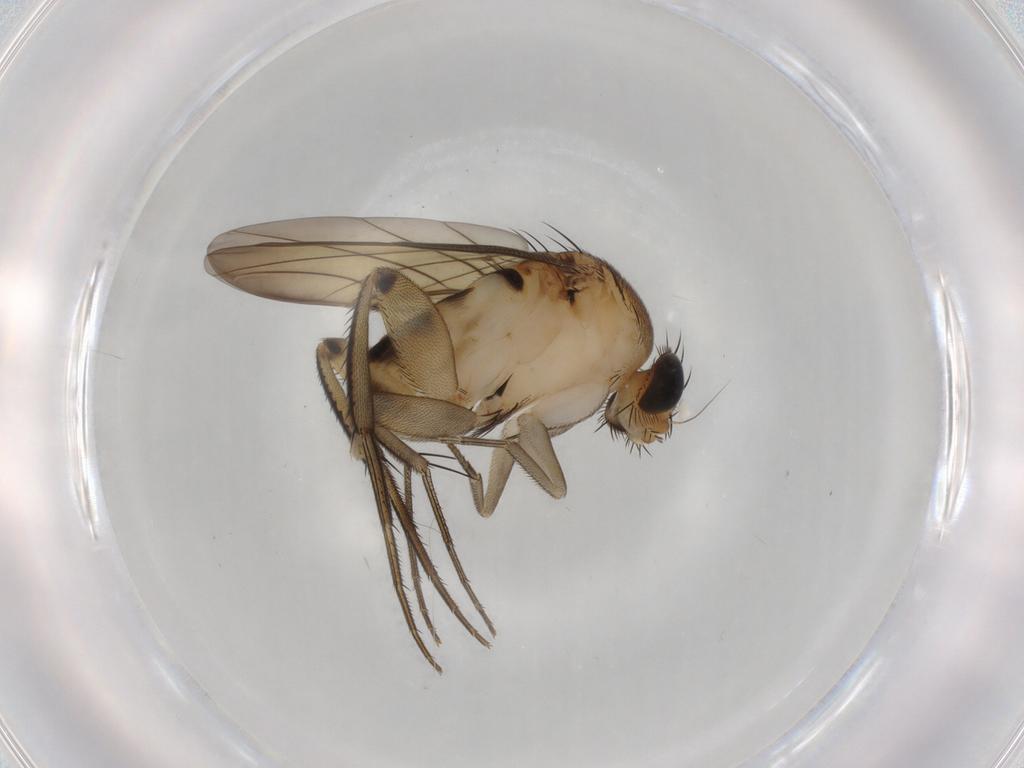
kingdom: Animalia
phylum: Arthropoda
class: Insecta
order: Diptera
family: Phoridae
